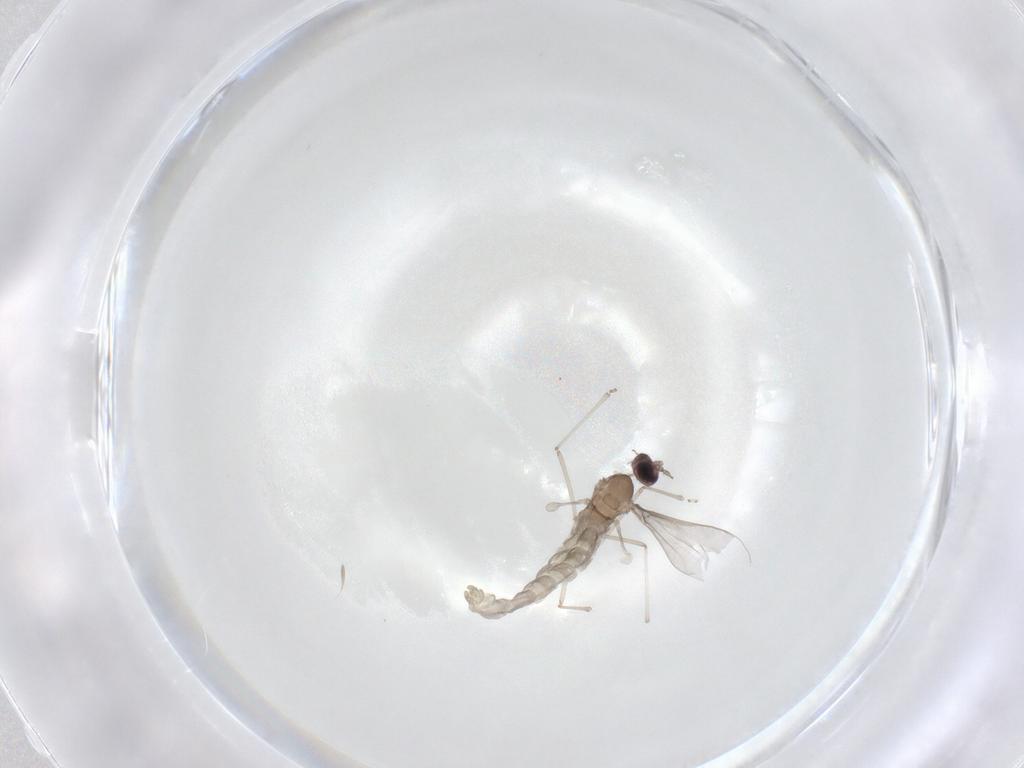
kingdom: Animalia
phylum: Arthropoda
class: Insecta
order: Diptera
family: Cecidomyiidae
